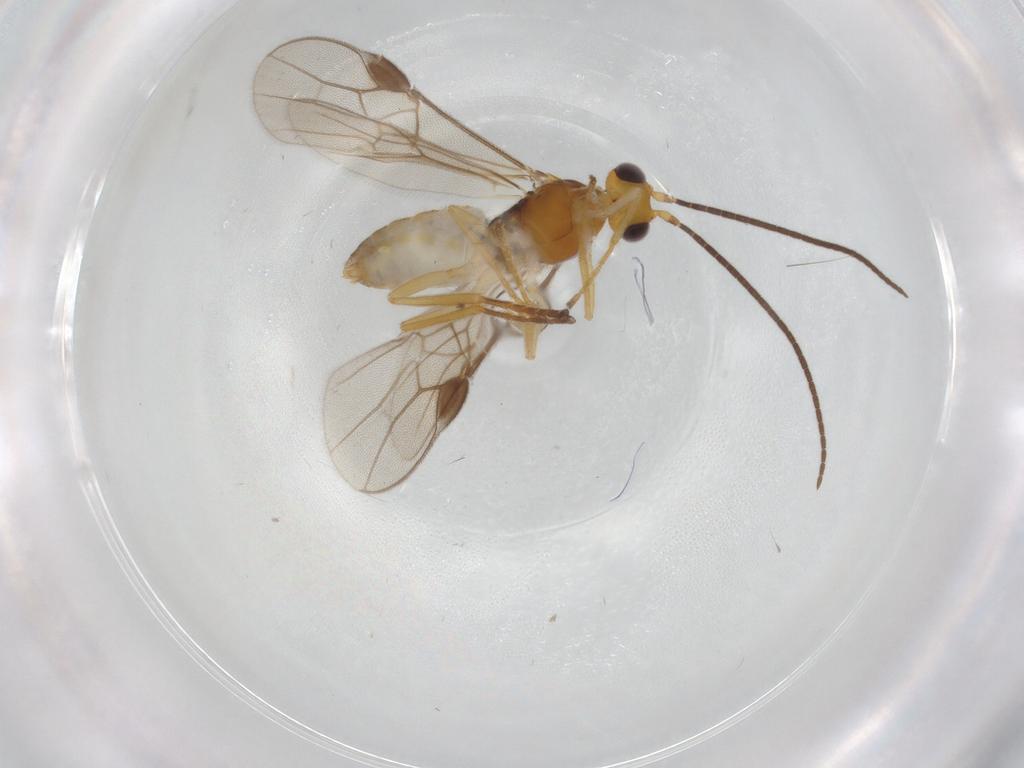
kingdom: Animalia
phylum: Arthropoda
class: Insecta
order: Hymenoptera
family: Braconidae
